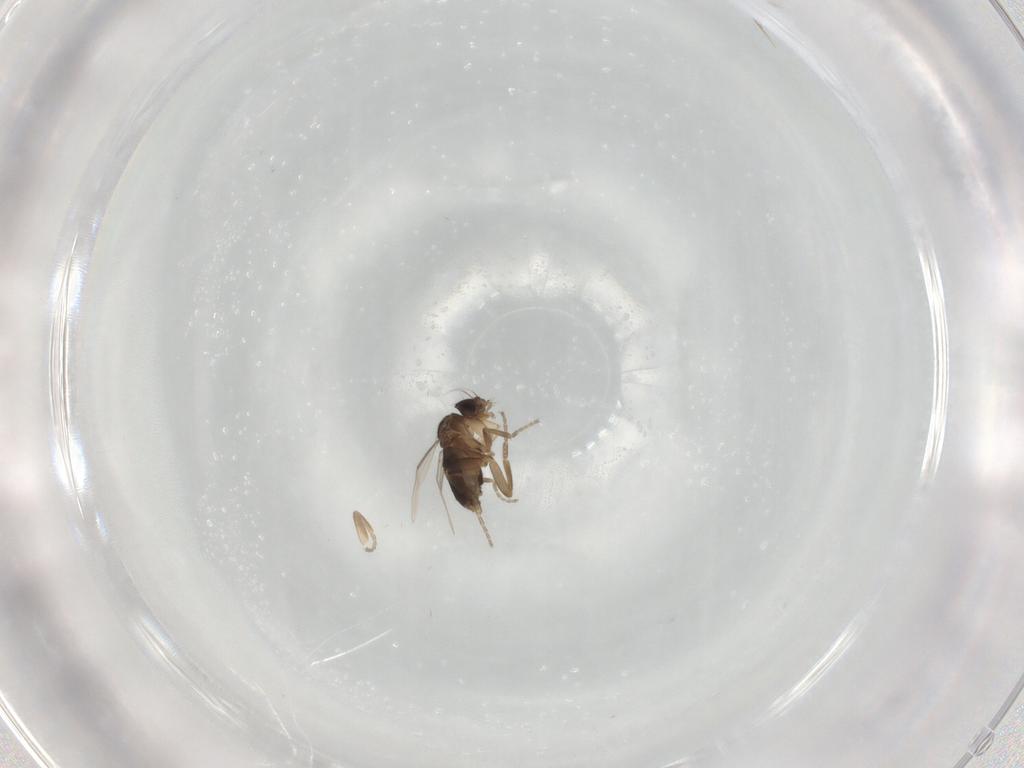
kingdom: Animalia
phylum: Arthropoda
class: Insecta
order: Diptera
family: Phoridae
